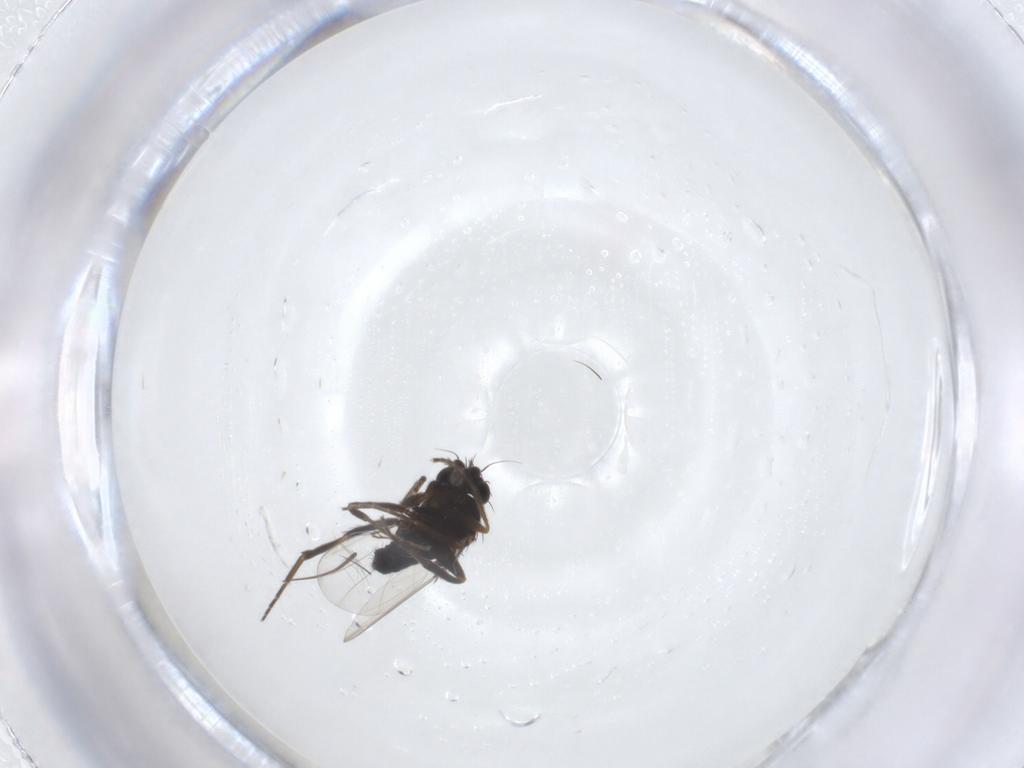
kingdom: Animalia
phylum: Arthropoda
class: Insecta
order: Diptera
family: Phoridae
